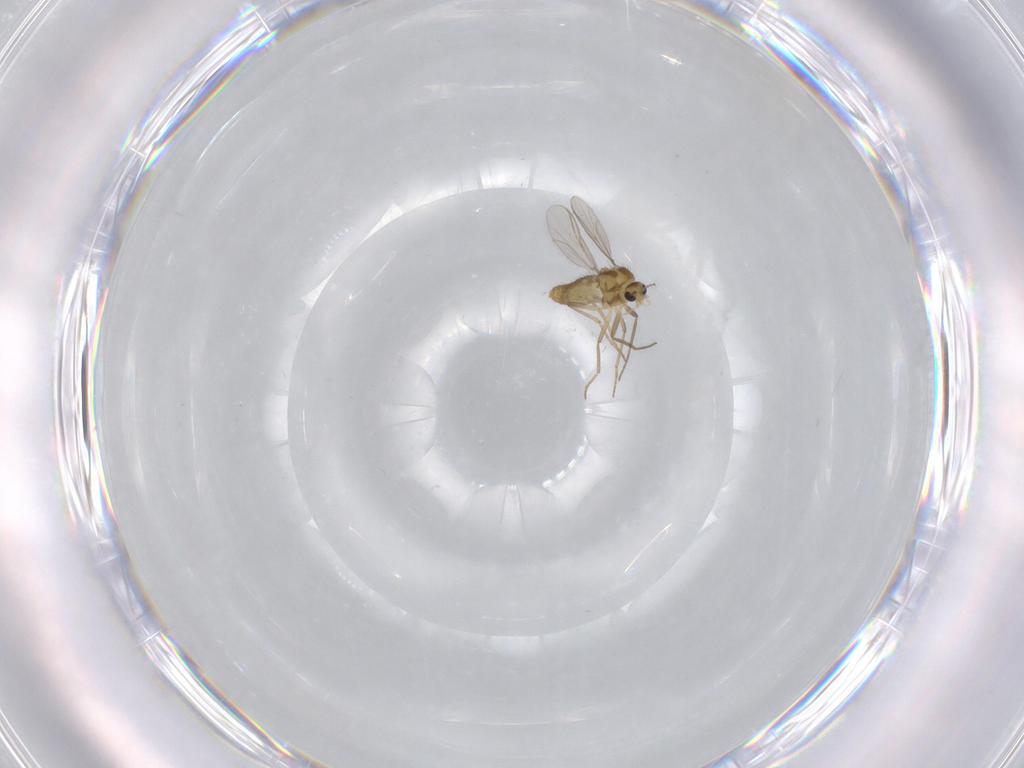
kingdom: Animalia
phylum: Arthropoda
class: Insecta
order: Diptera
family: Chironomidae
